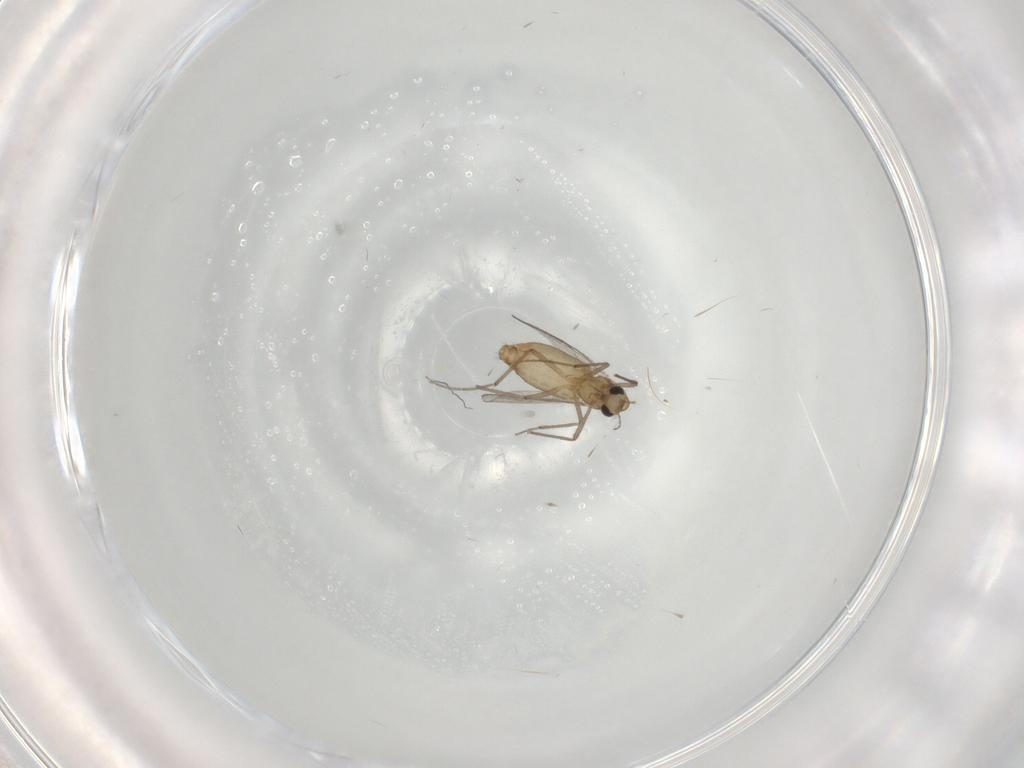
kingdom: Animalia
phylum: Arthropoda
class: Insecta
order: Diptera
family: Chironomidae
